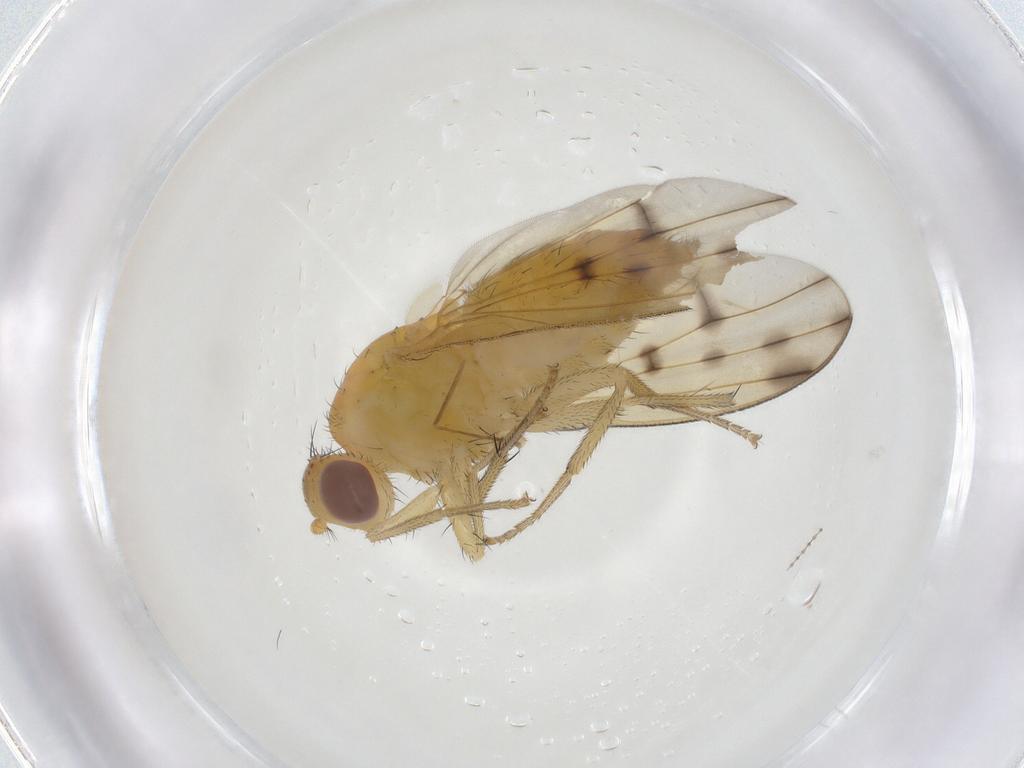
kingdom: Animalia
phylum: Arthropoda
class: Insecta
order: Diptera
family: Lauxaniidae
